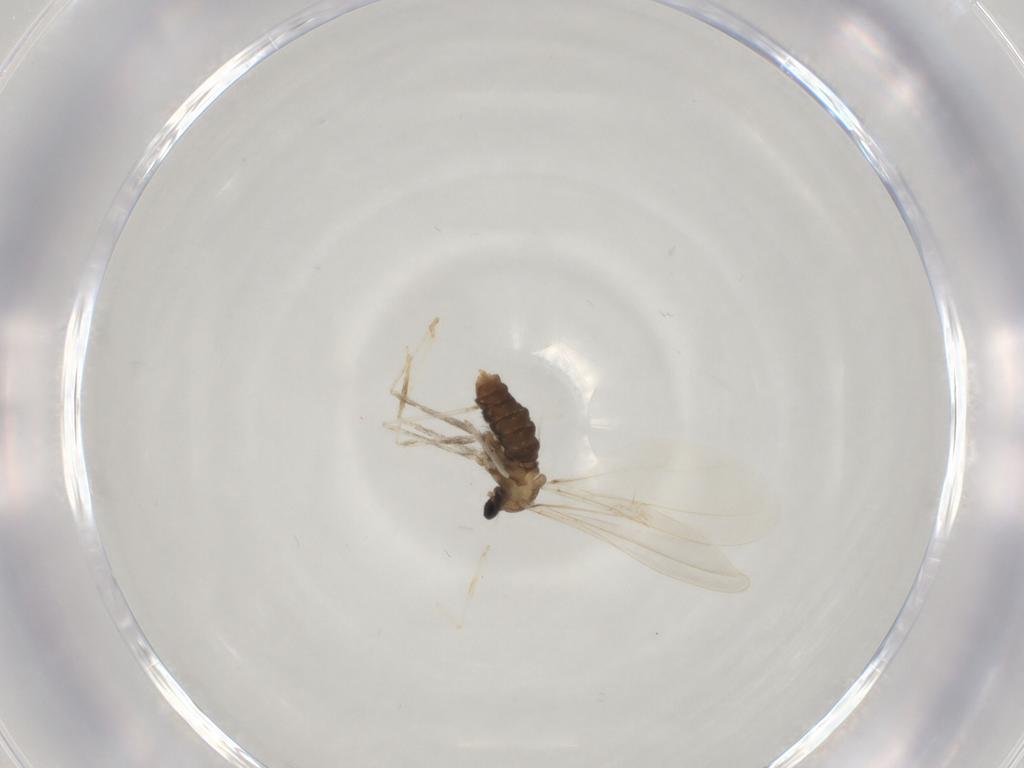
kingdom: Animalia
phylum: Arthropoda
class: Insecta
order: Diptera
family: Cecidomyiidae
